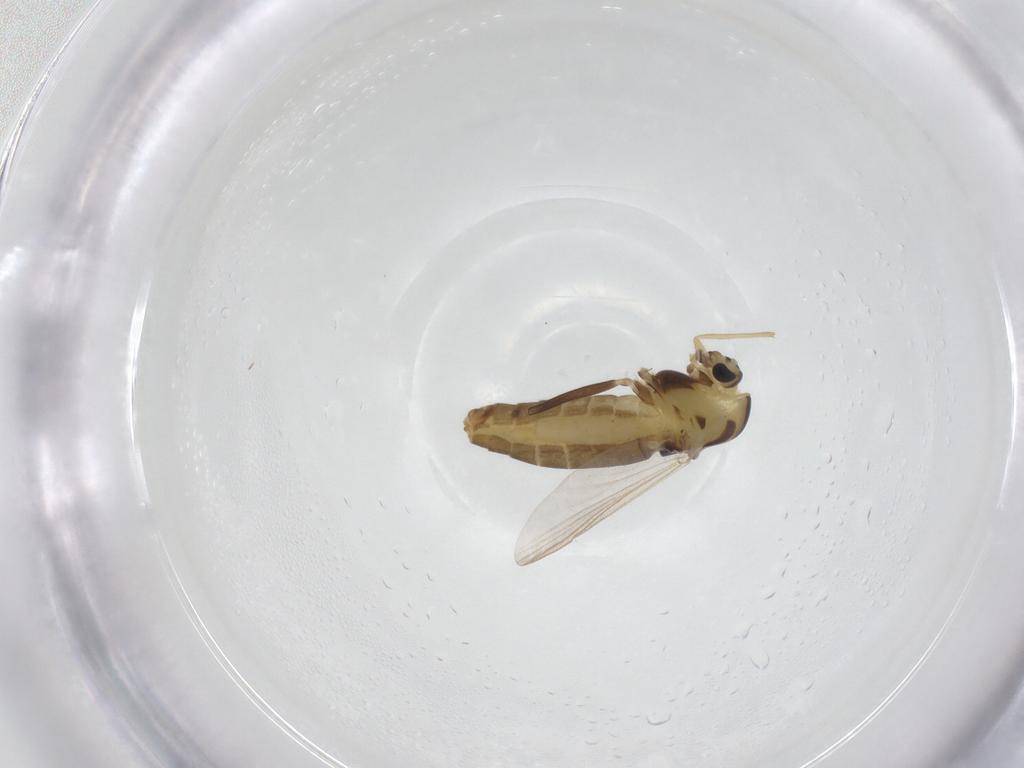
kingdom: Animalia
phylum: Arthropoda
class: Insecta
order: Diptera
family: Chironomidae
